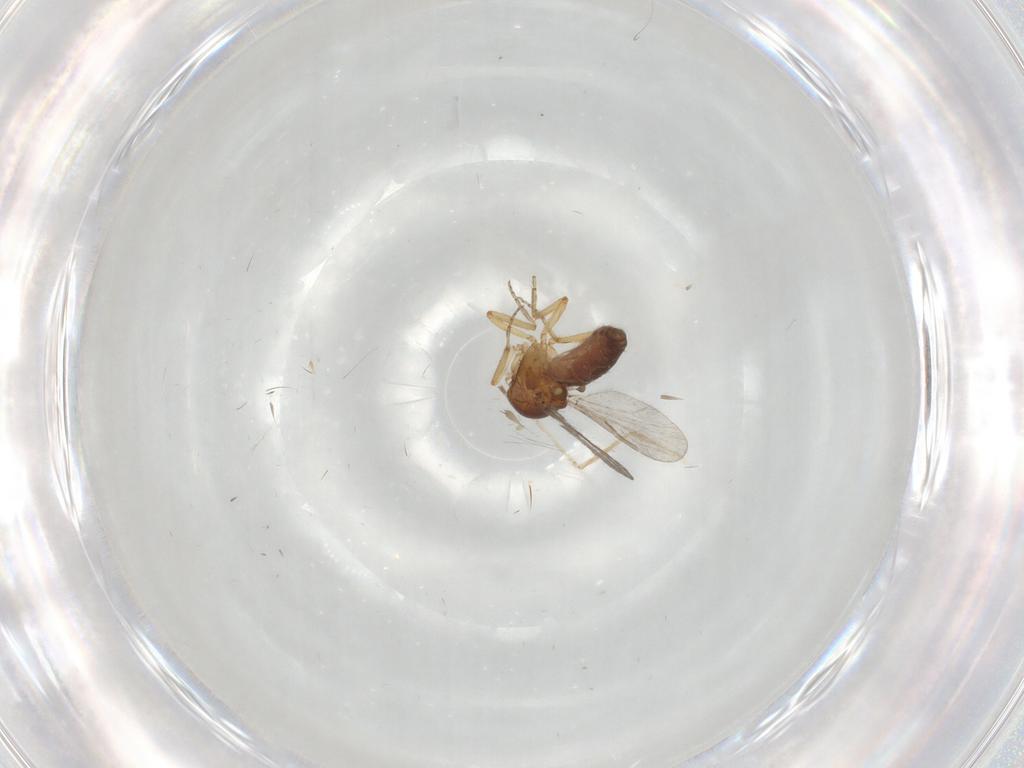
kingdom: Animalia
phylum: Arthropoda
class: Insecta
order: Diptera
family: Ceratopogonidae
